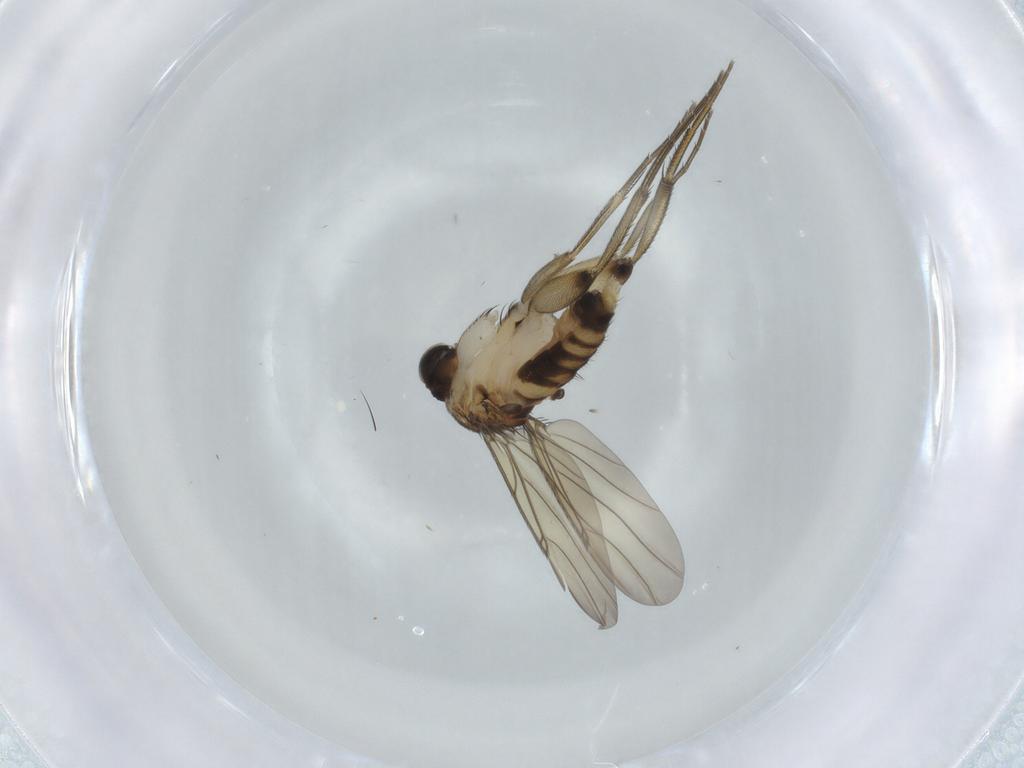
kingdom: Animalia
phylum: Arthropoda
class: Insecta
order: Diptera
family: Phoridae
